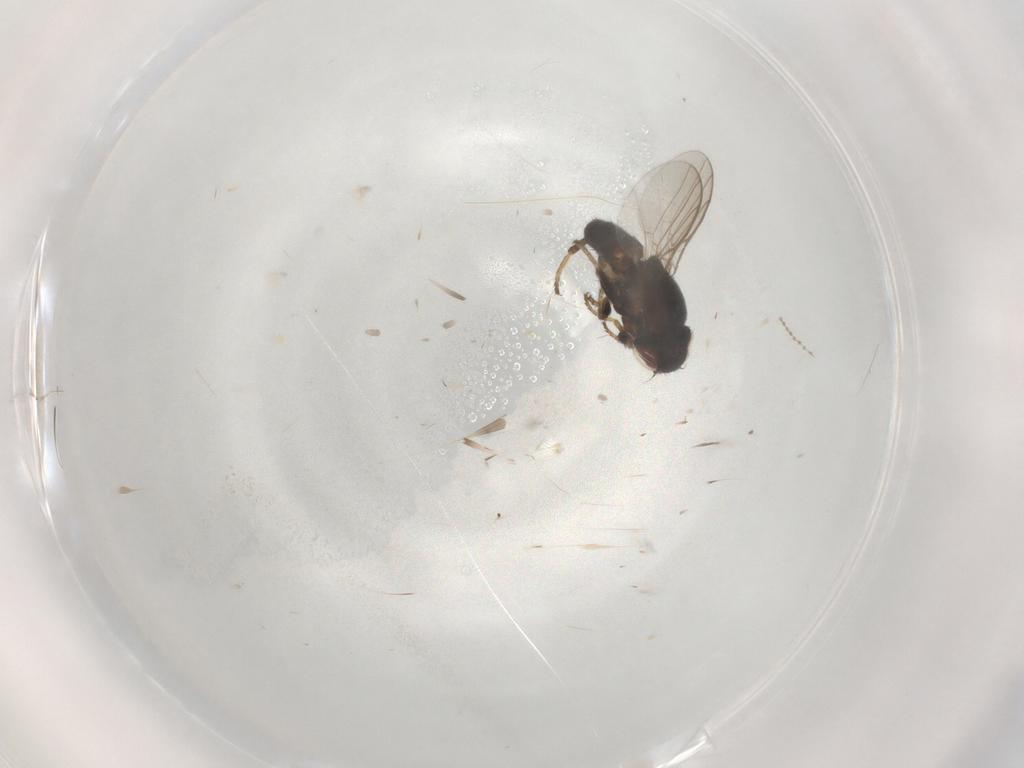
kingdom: Animalia
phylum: Arthropoda
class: Insecta
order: Diptera
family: Chloropidae
